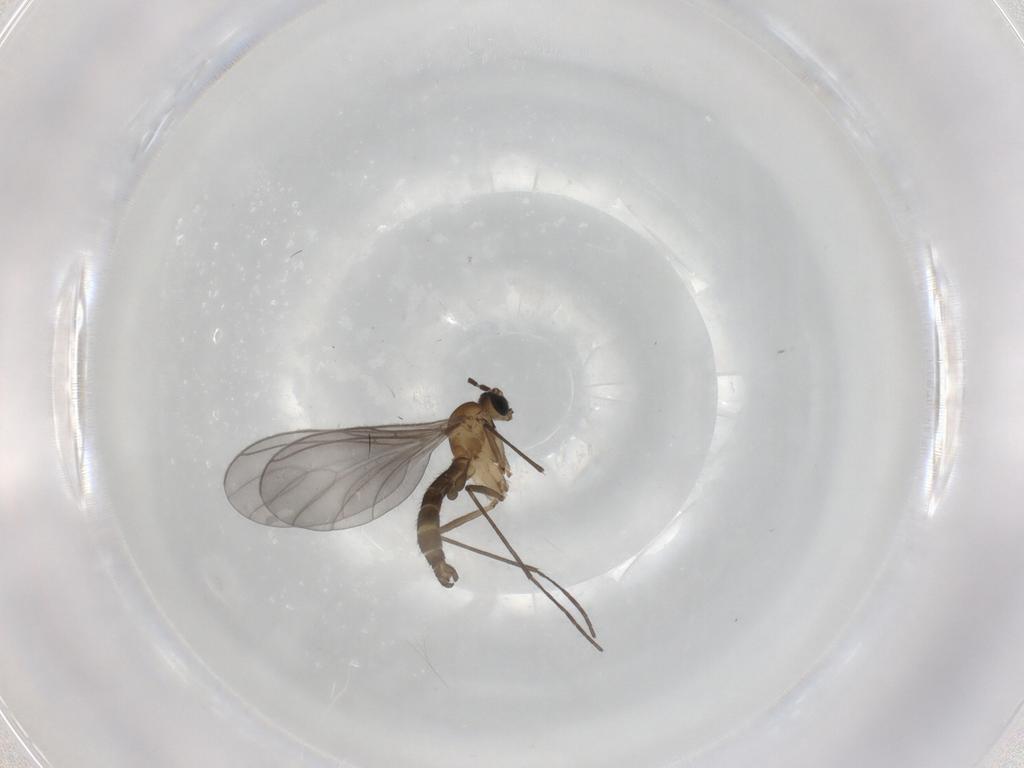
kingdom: Animalia
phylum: Arthropoda
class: Insecta
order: Diptera
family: Sciaridae
